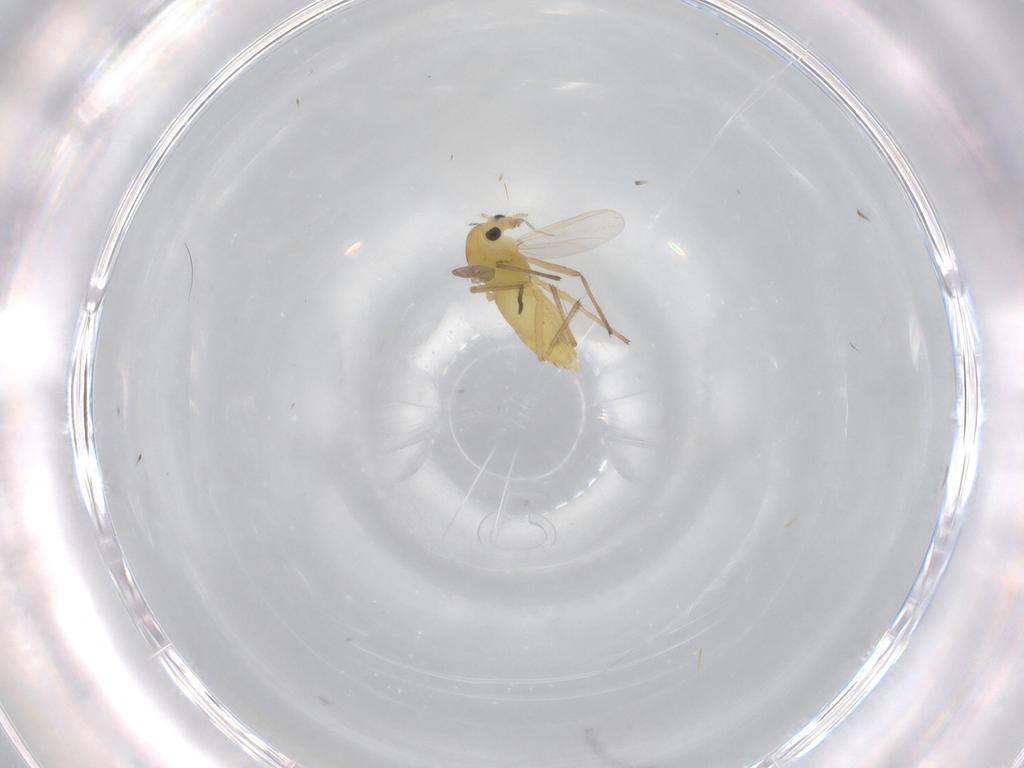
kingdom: Animalia
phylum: Arthropoda
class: Insecta
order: Diptera
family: Chironomidae
